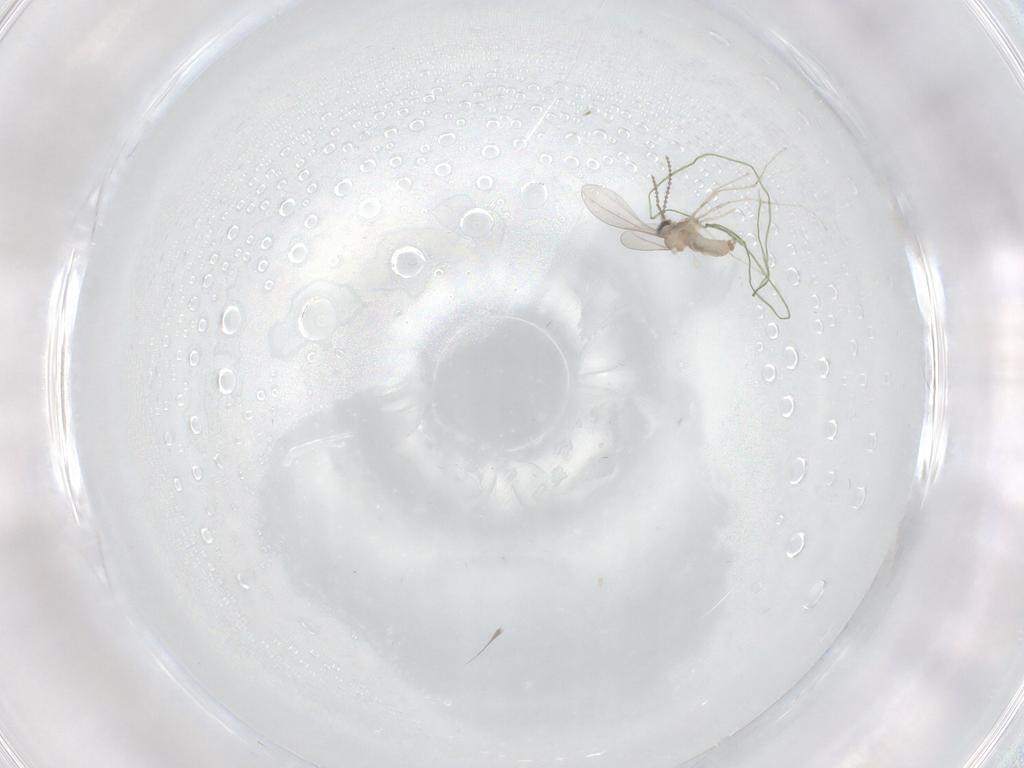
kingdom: Animalia
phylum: Arthropoda
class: Insecta
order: Diptera
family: Cecidomyiidae
